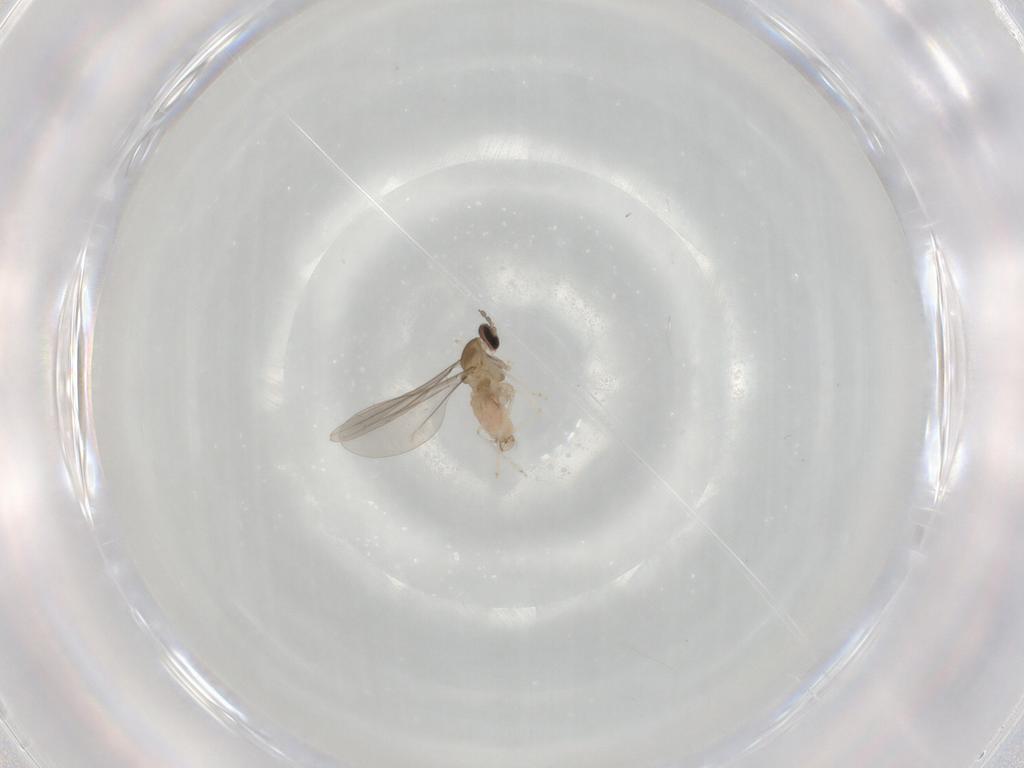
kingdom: Animalia
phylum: Arthropoda
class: Insecta
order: Diptera
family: Cecidomyiidae
